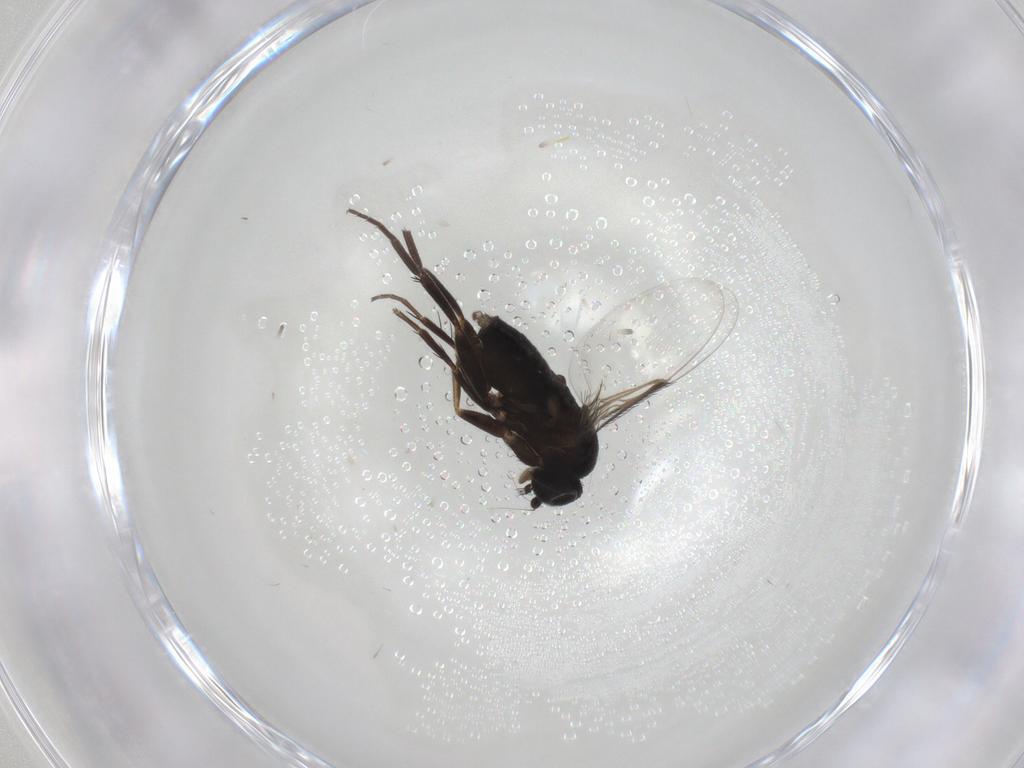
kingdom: Animalia
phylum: Arthropoda
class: Insecta
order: Diptera
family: Phoridae
